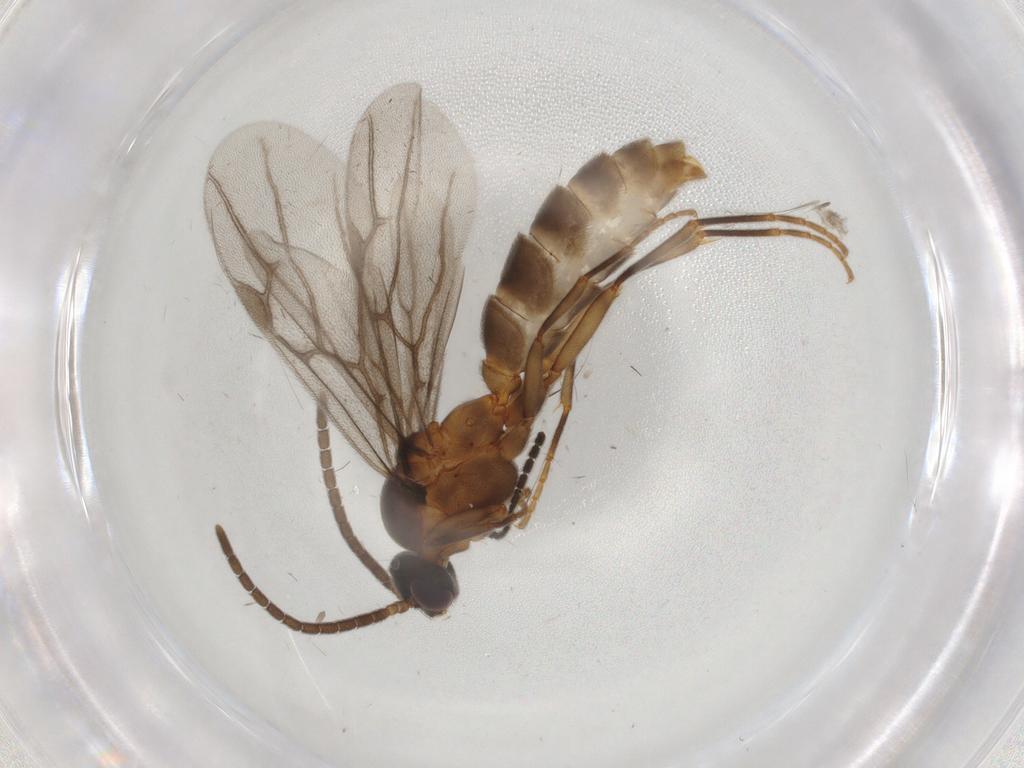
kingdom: Animalia
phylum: Arthropoda
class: Insecta
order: Hymenoptera
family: Formicidae
